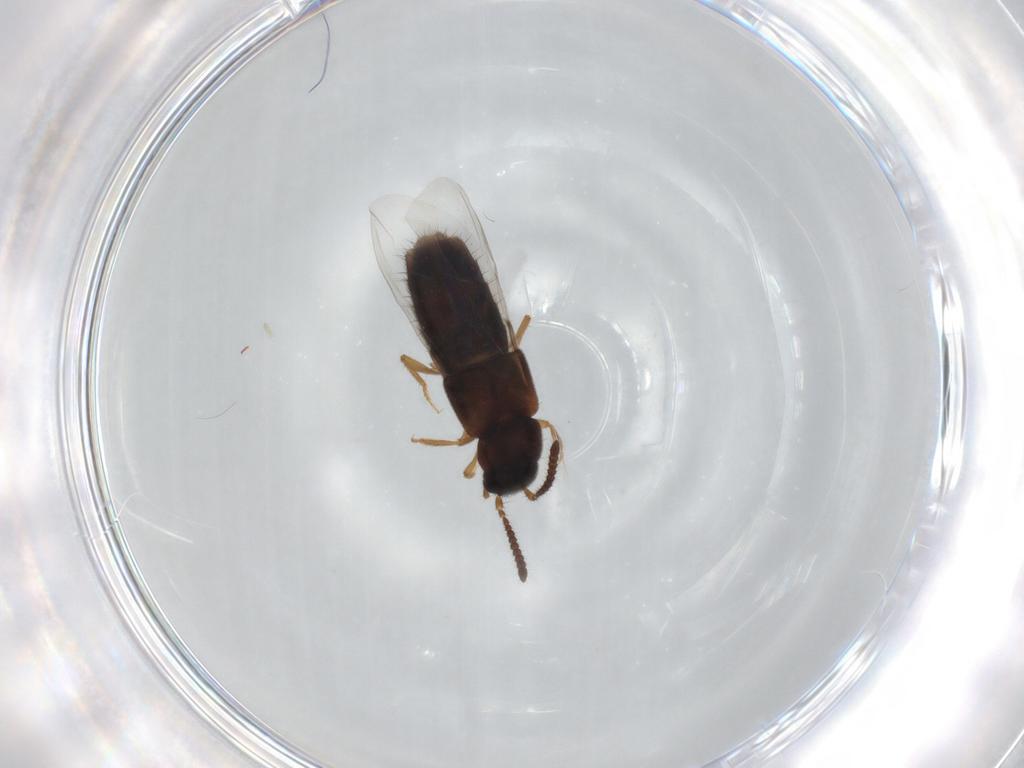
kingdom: Animalia
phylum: Arthropoda
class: Insecta
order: Coleoptera
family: Staphylinidae
